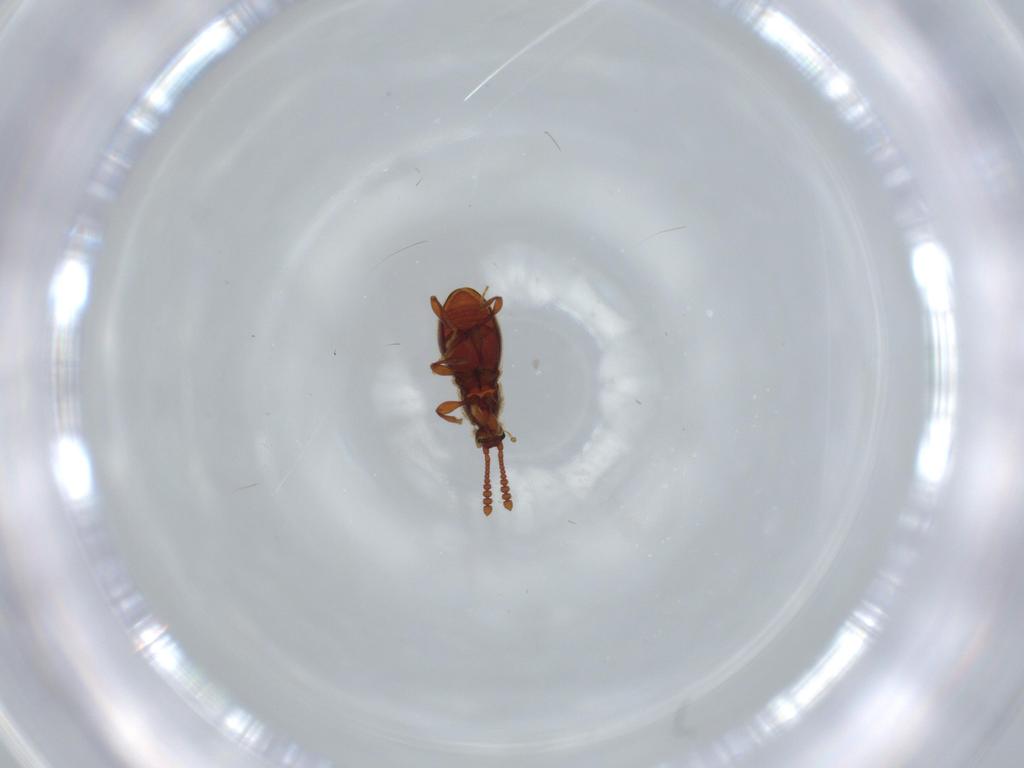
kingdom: Animalia
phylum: Arthropoda
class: Insecta
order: Coleoptera
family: Staphylinidae
